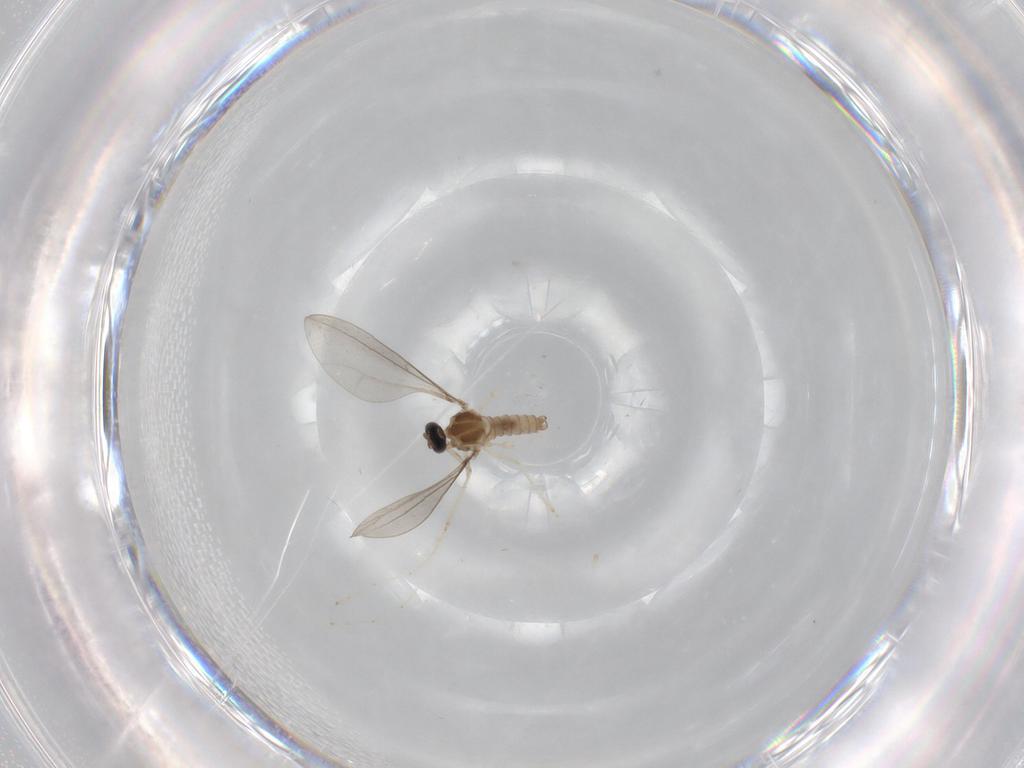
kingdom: Animalia
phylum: Arthropoda
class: Insecta
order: Diptera
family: Cecidomyiidae
